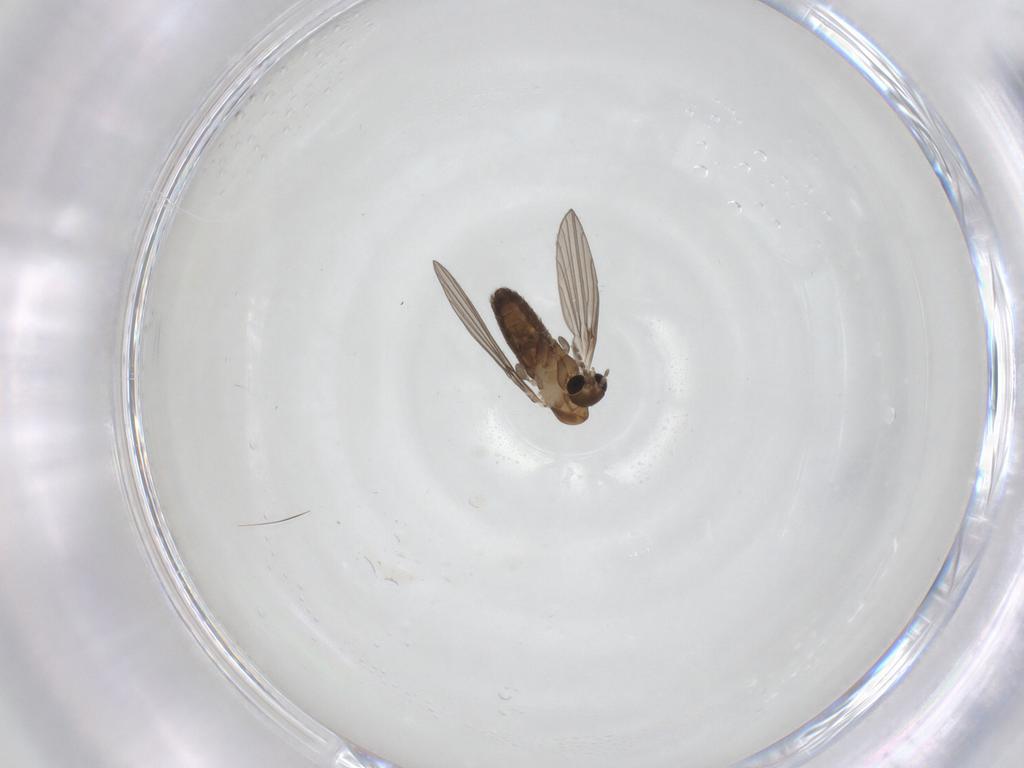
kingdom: Animalia
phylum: Arthropoda
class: Insecta
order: Diptera
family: Psychodidae
